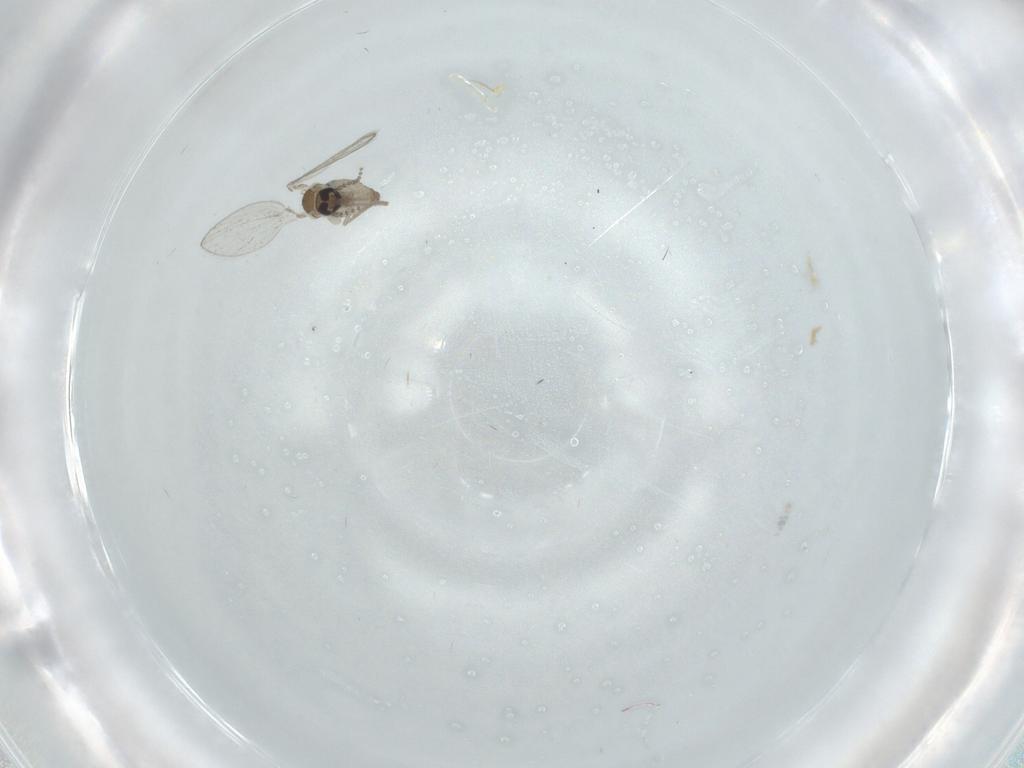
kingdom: Animalia
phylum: Arthropoda
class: Insecta
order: Diptera
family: Psychodidae
